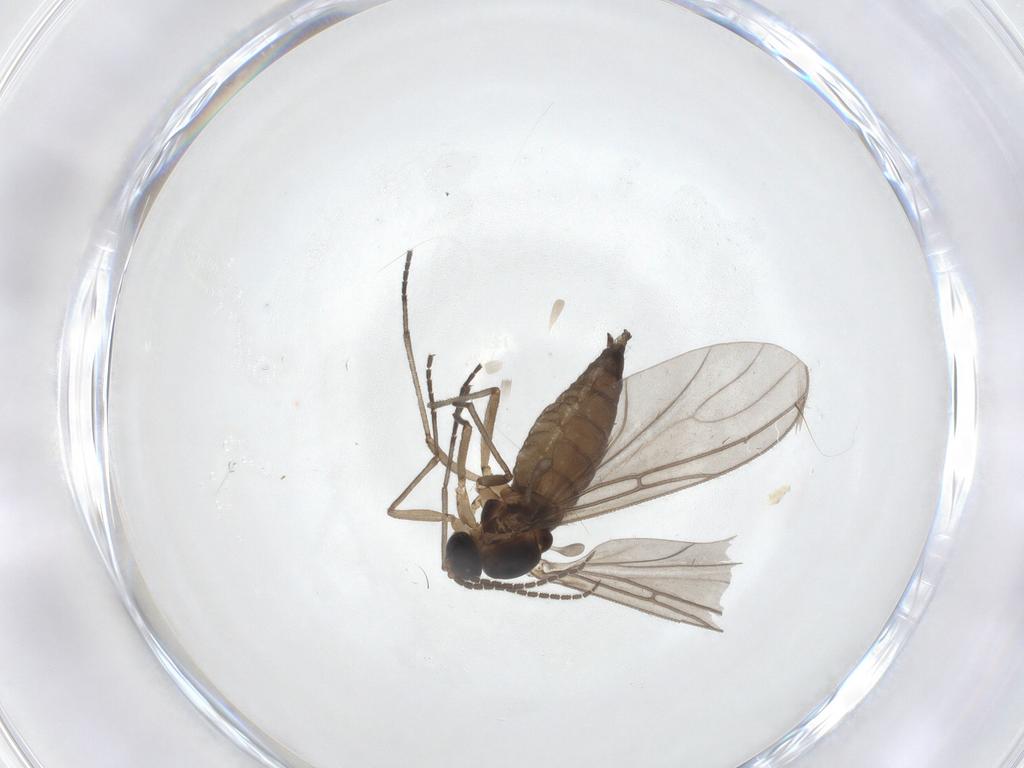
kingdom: Animalia
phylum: Arthropoda
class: Insecta
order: Diptera
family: Sciaridae
